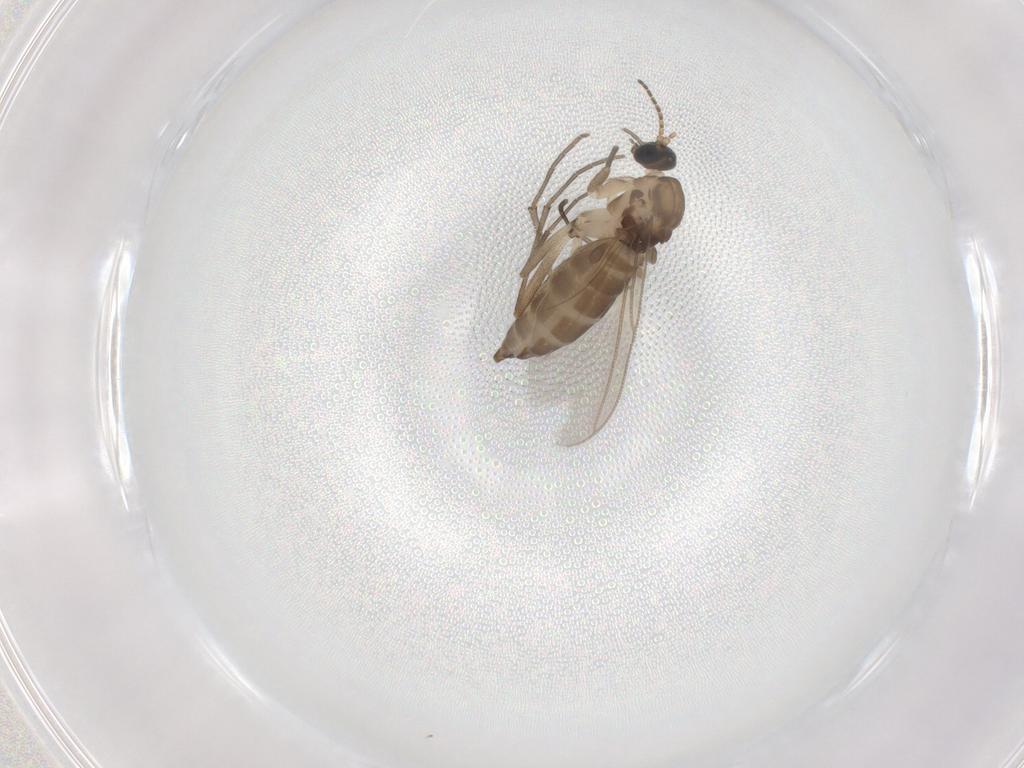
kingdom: Animalia
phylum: Arthropoda
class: Insecta
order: Diptera
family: Sciaridae
